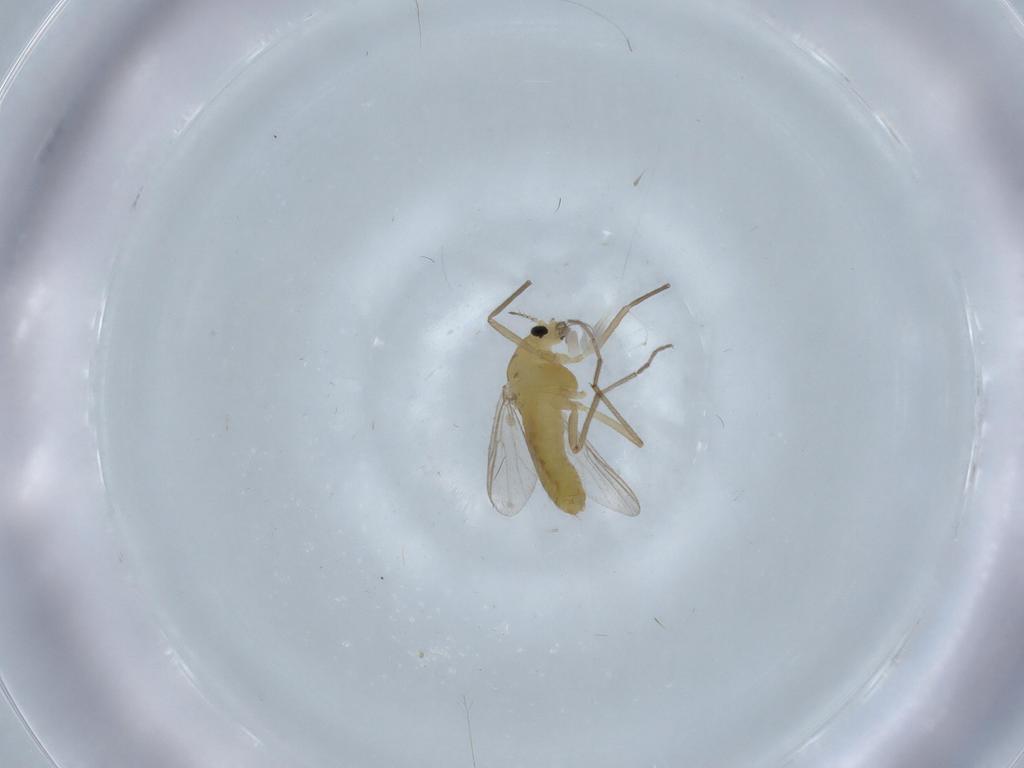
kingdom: Animalia
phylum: Arthropoda
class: Insecta
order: Diptera
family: Chironomidae
